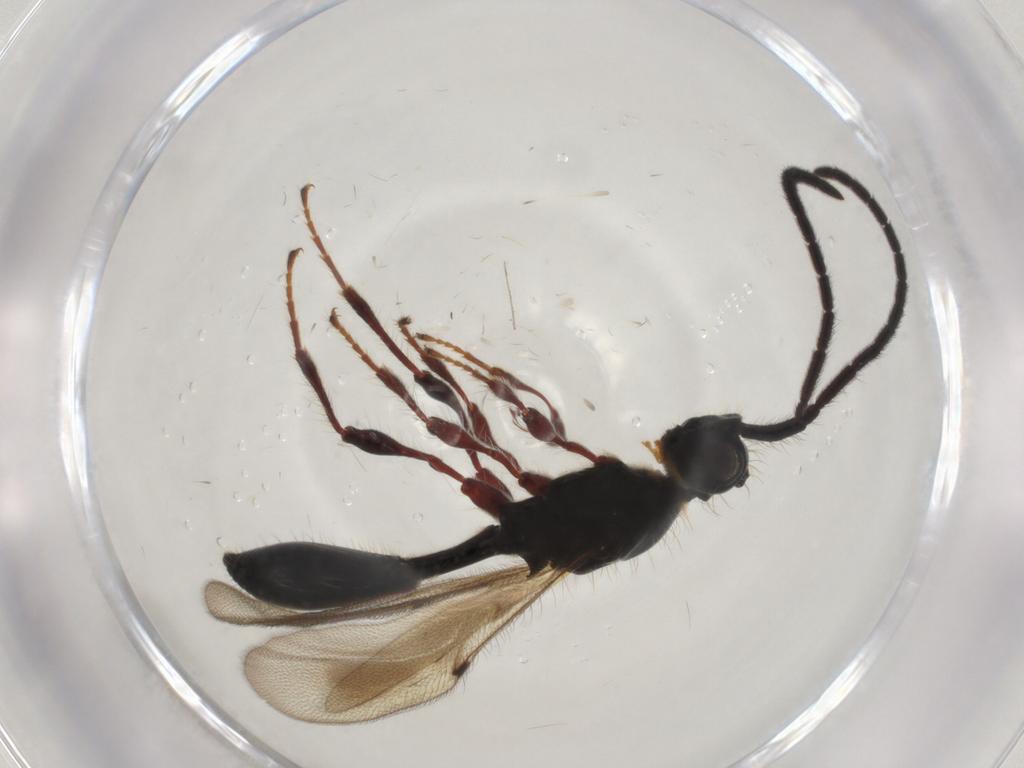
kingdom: Animalia
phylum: Arthropoda
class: Insecta
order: Hymenoptera
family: Diapriidae
